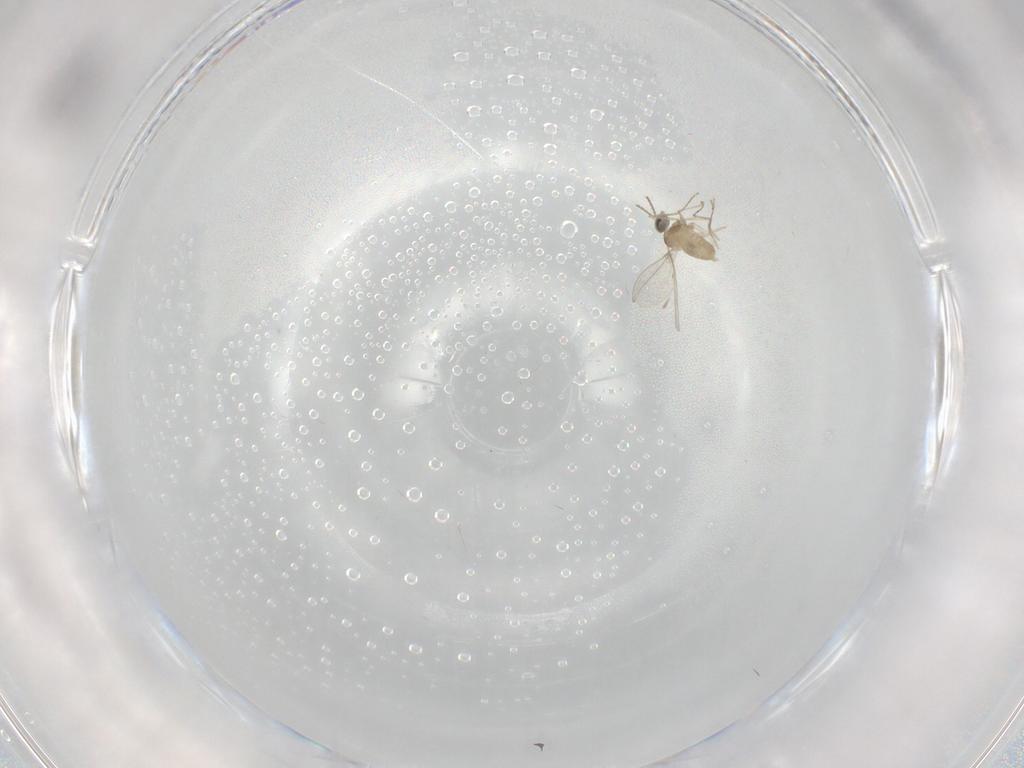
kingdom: Animalia
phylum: Arthropoda
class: Insecta
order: Diptera
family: Cecidomyiidae
